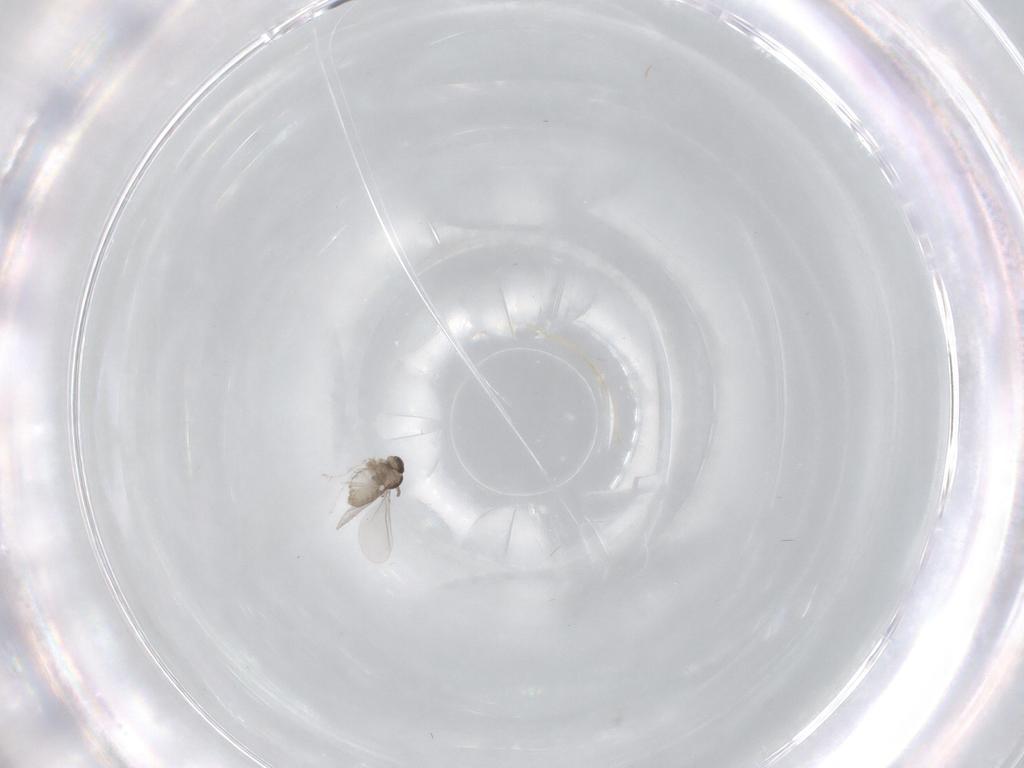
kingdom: Animalia
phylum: Arthropoda
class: Insecta
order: Diptera
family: Cecidomyiidae
